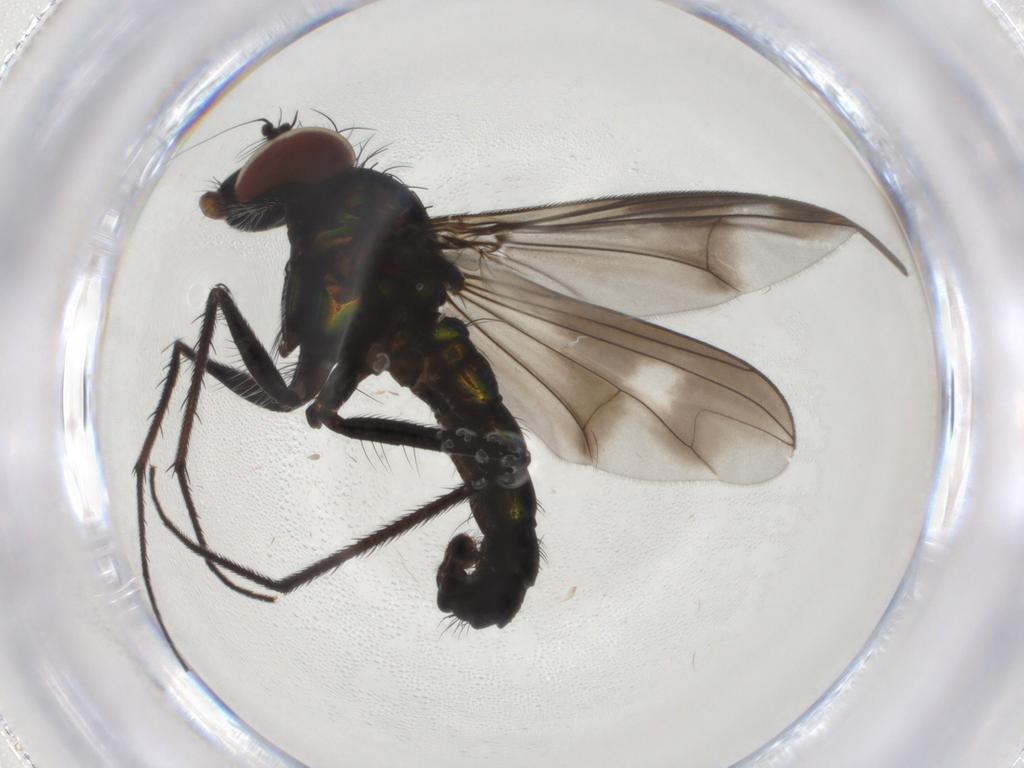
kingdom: Animalia
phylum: Arthropoda
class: Insecta
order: Diptera
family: Dolichopodidae
